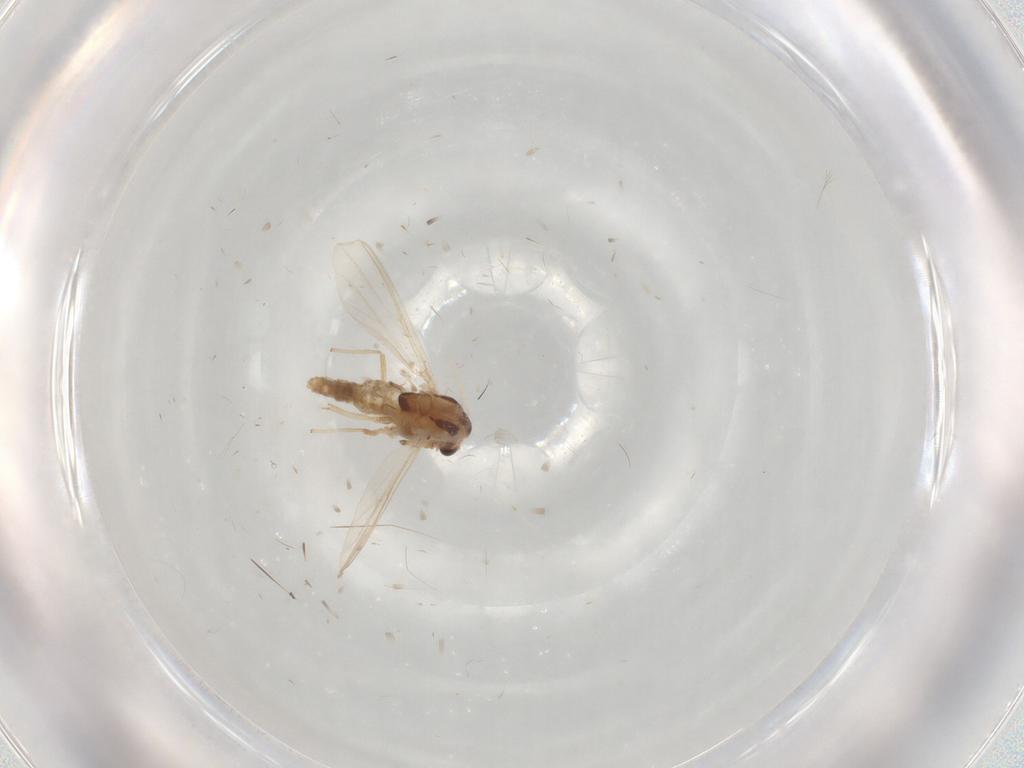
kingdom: Animalia
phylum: Arthropoda
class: Insecta
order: Diptera
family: Chironomidae
